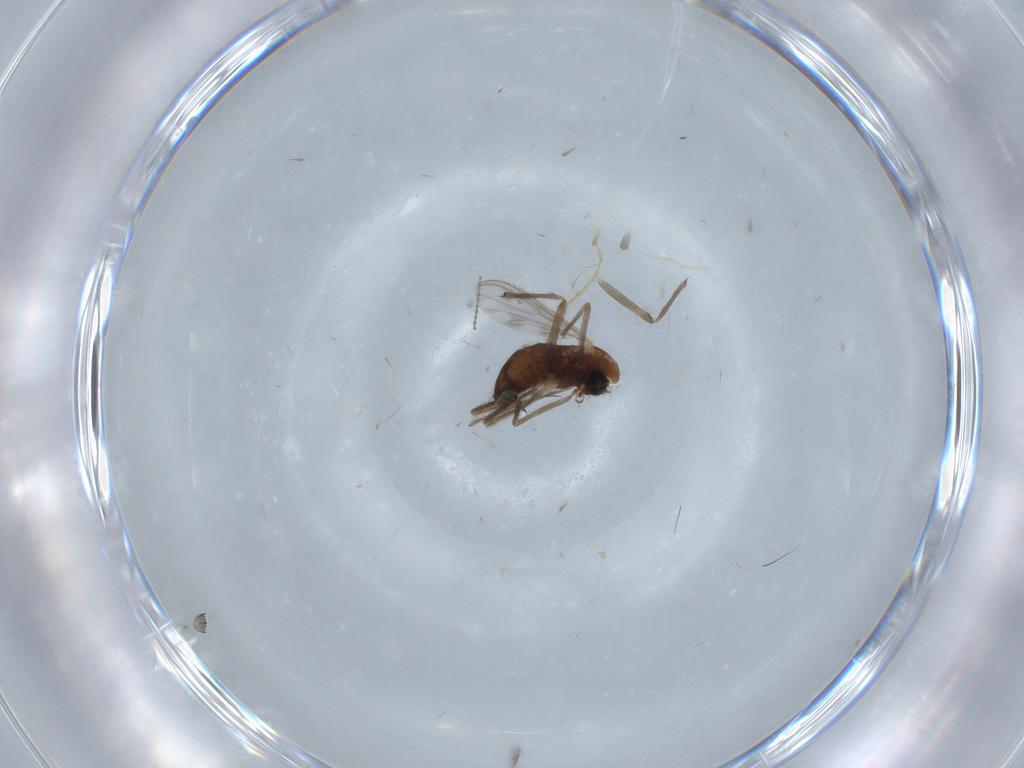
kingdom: Animalia
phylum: Arthropoda
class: Insecta
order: Diptera
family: Chironomidae
